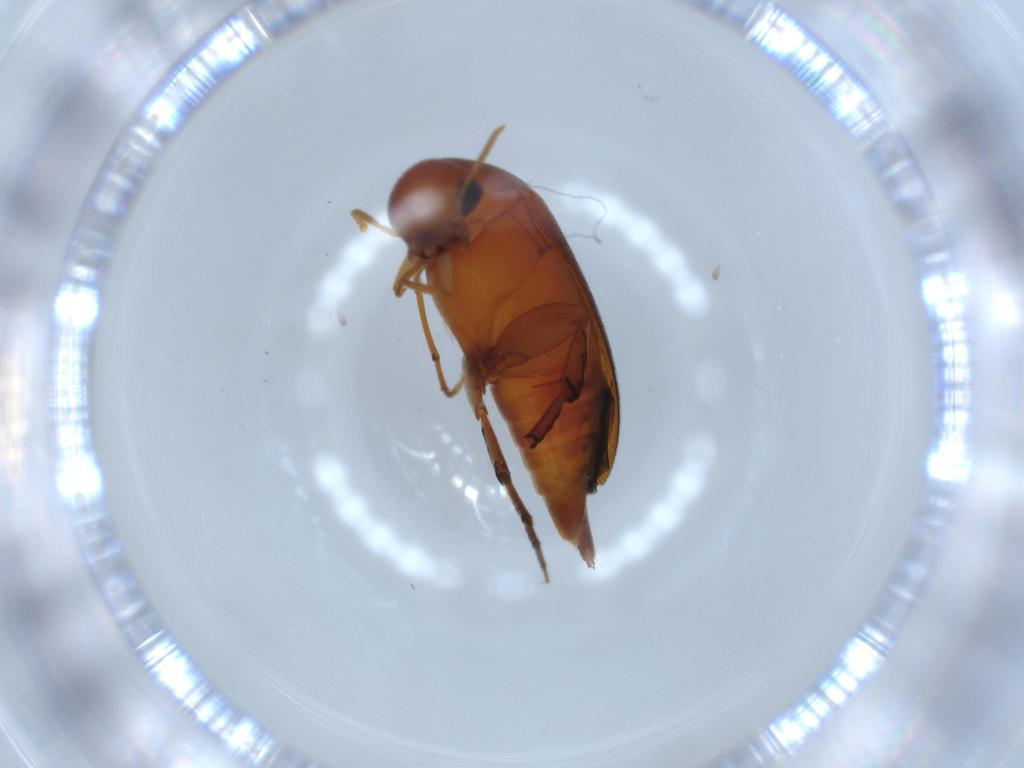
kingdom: Animalia
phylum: Arthropoda
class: Insecta
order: Coleoptera
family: Mordellidae
